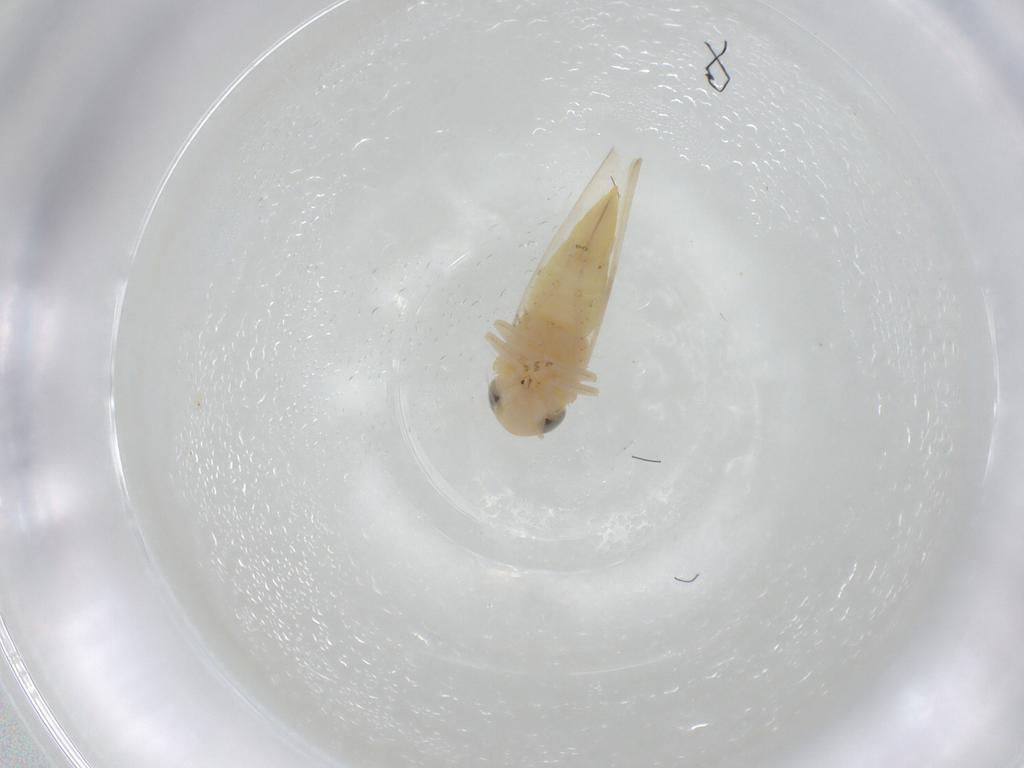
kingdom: Animalia
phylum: Arthropoda
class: Insecta
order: Hemiptera
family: Cicadellidae
